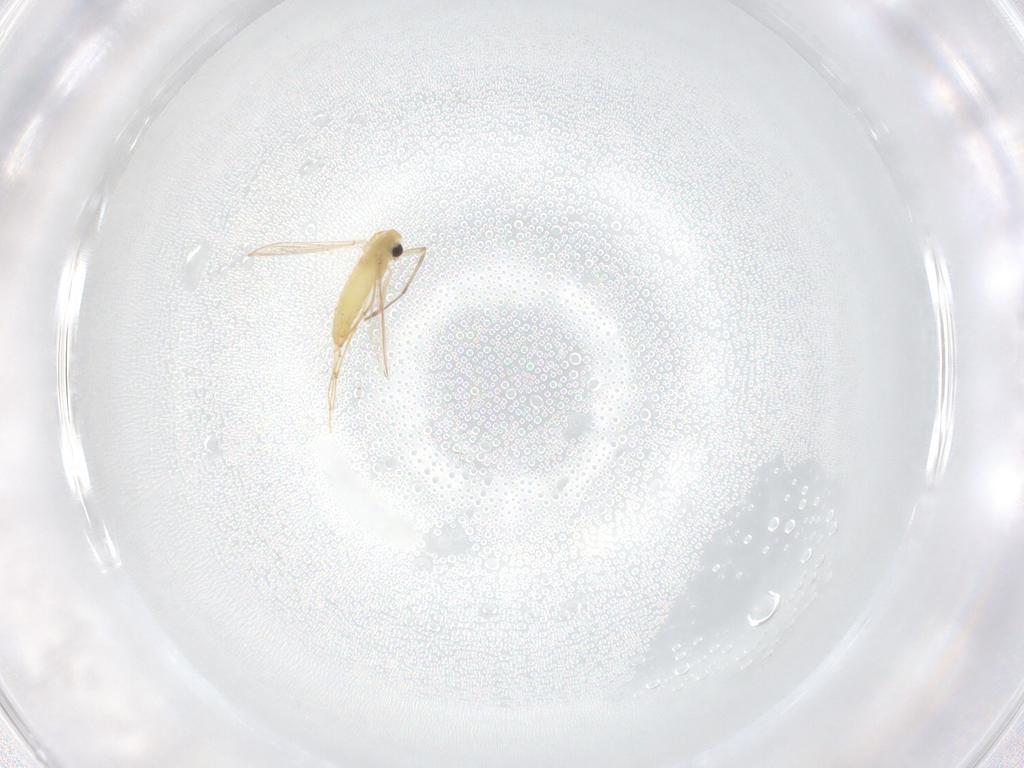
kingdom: Animalia
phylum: Arthropoda
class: Insecta
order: Diptera
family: Chironomidae
